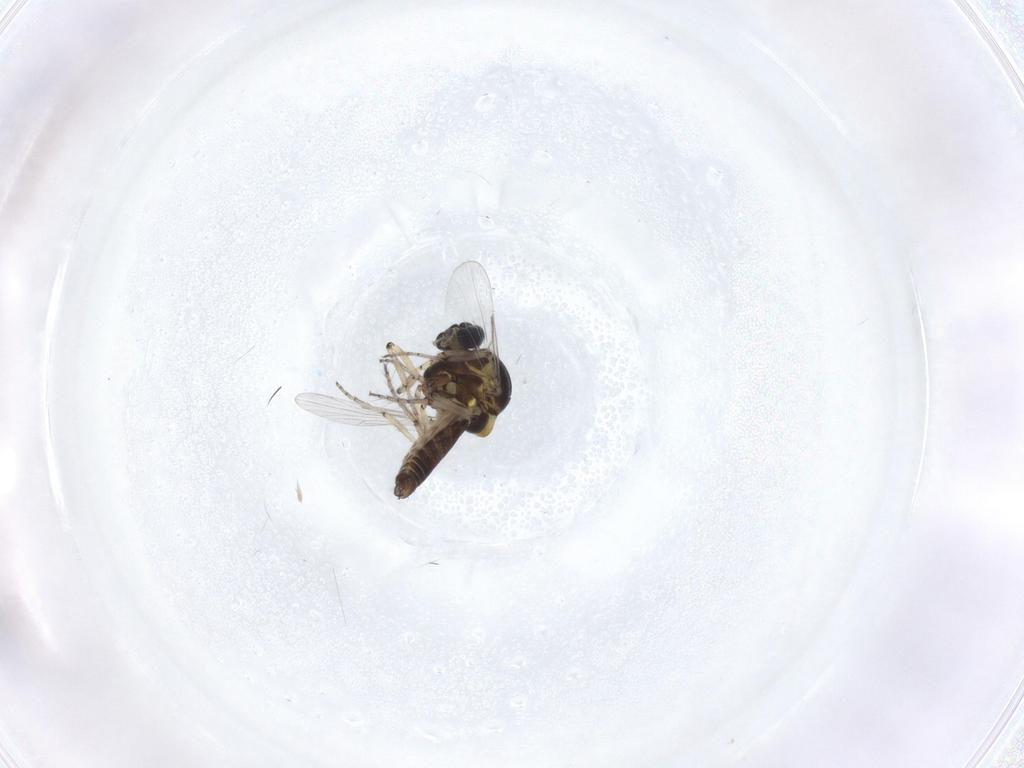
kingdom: Animalia
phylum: Arthropoda
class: Insecta
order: Diptera
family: Ceratopogonidae
